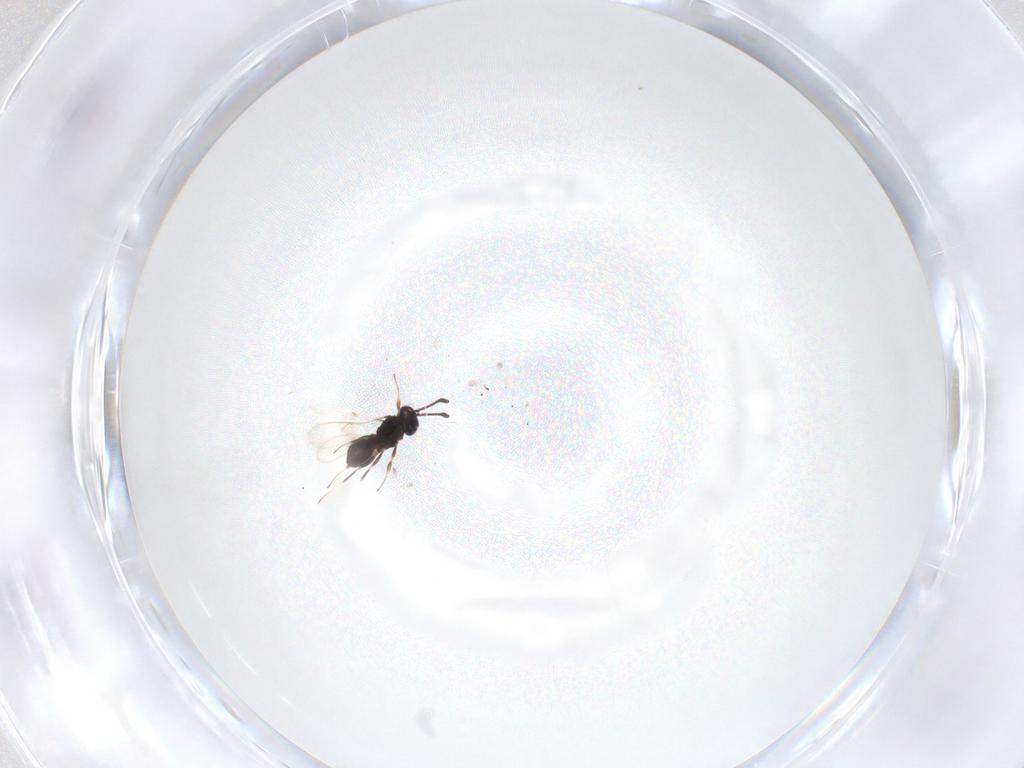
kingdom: Animalia
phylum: Arthropoda
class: Insecta
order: Hymenoptera
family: Scelionidae
